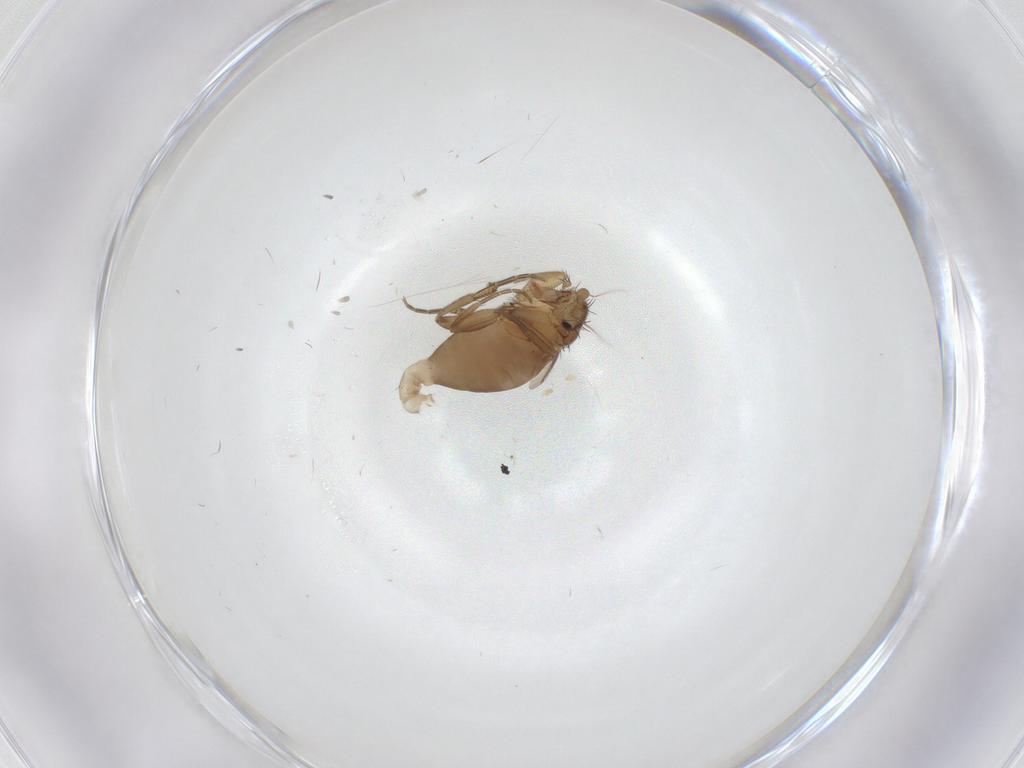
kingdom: Animalia
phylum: Arthropoda
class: Insecta
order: Diptera
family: Phoridae
